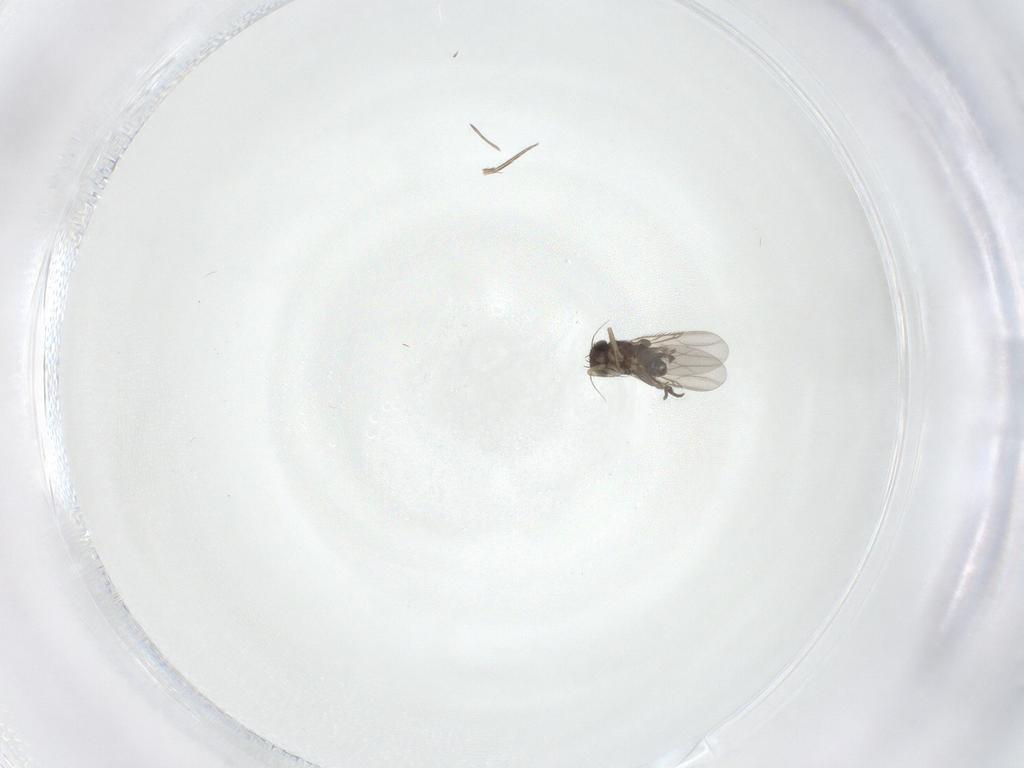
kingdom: Animalia
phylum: Arthropoda
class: Insecta
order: Diptera
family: Phoridae
